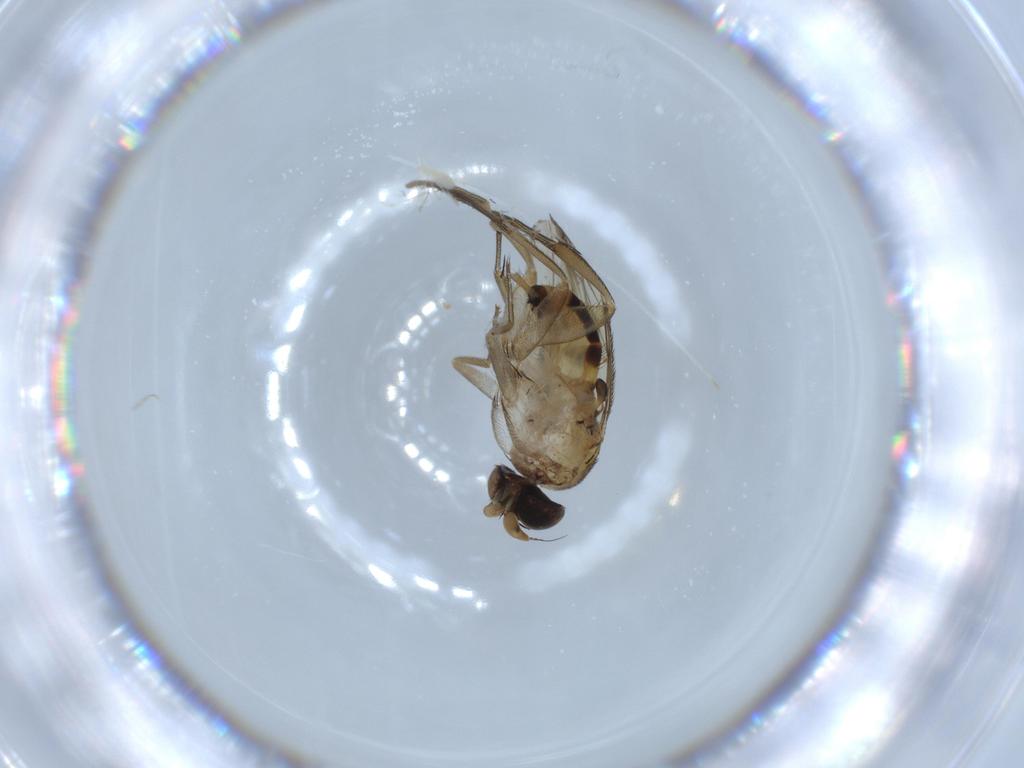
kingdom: Animalia
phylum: Arthropoda
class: Insecta
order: Diptera
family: Phoridae
